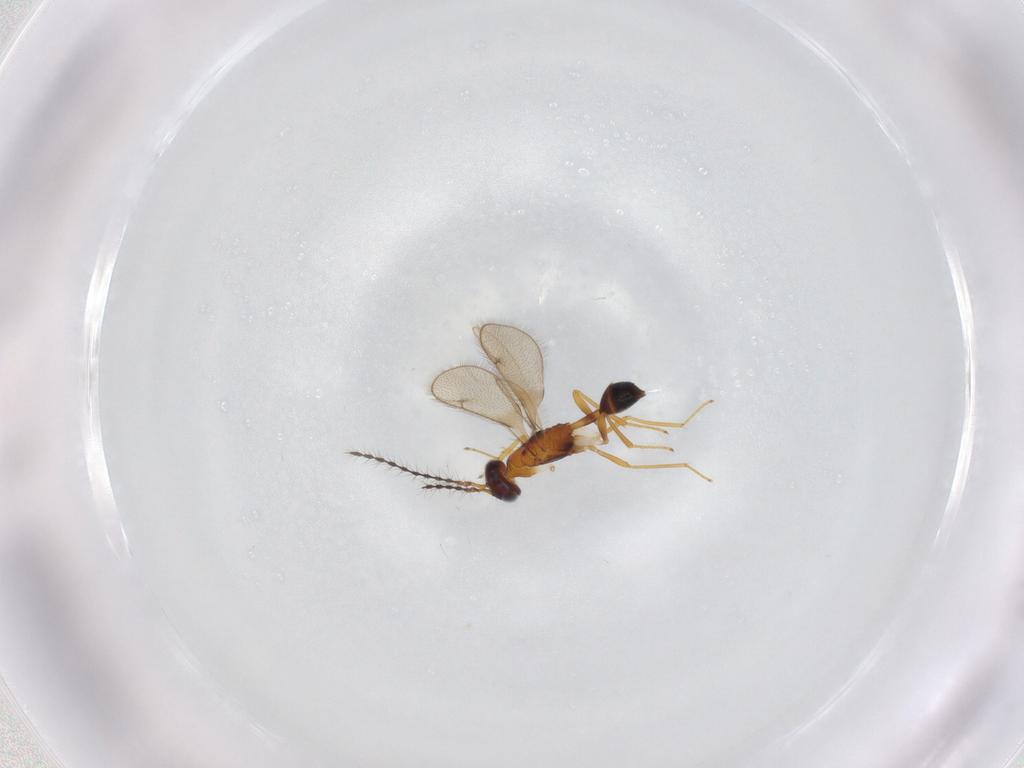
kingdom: Animalia
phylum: Arthropoda
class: Insecta
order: Hymenoptera
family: Diparidae
